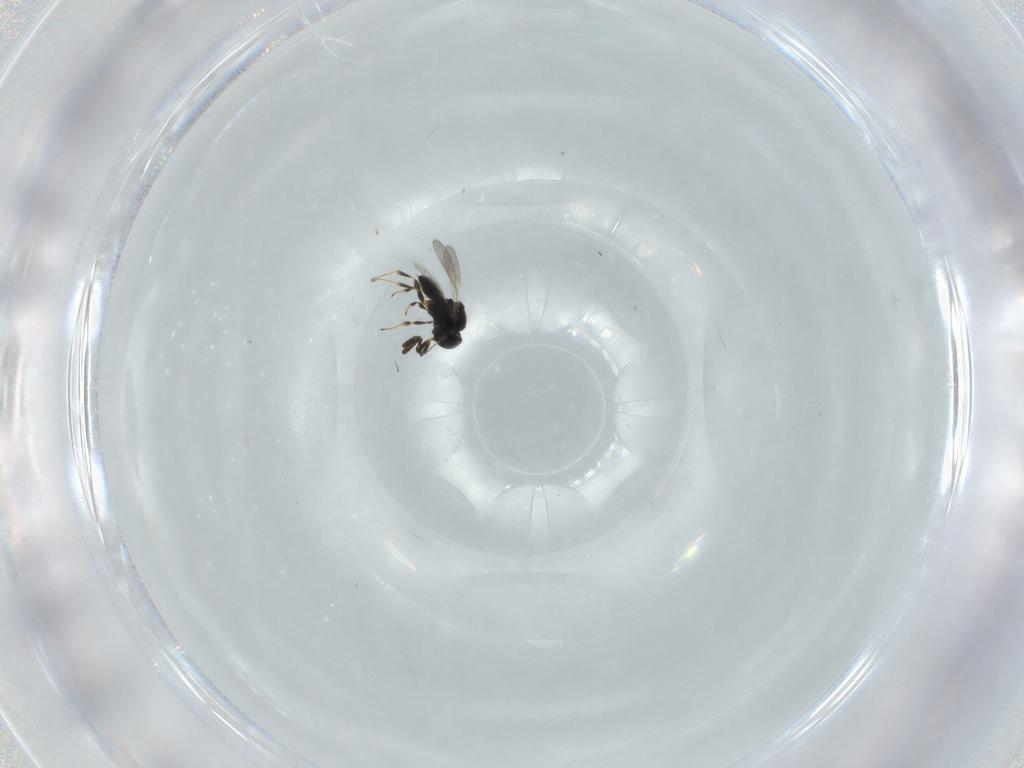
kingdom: Animalia
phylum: Arthropoda
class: Insecta
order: Hymenoptera
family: Scelionidae
